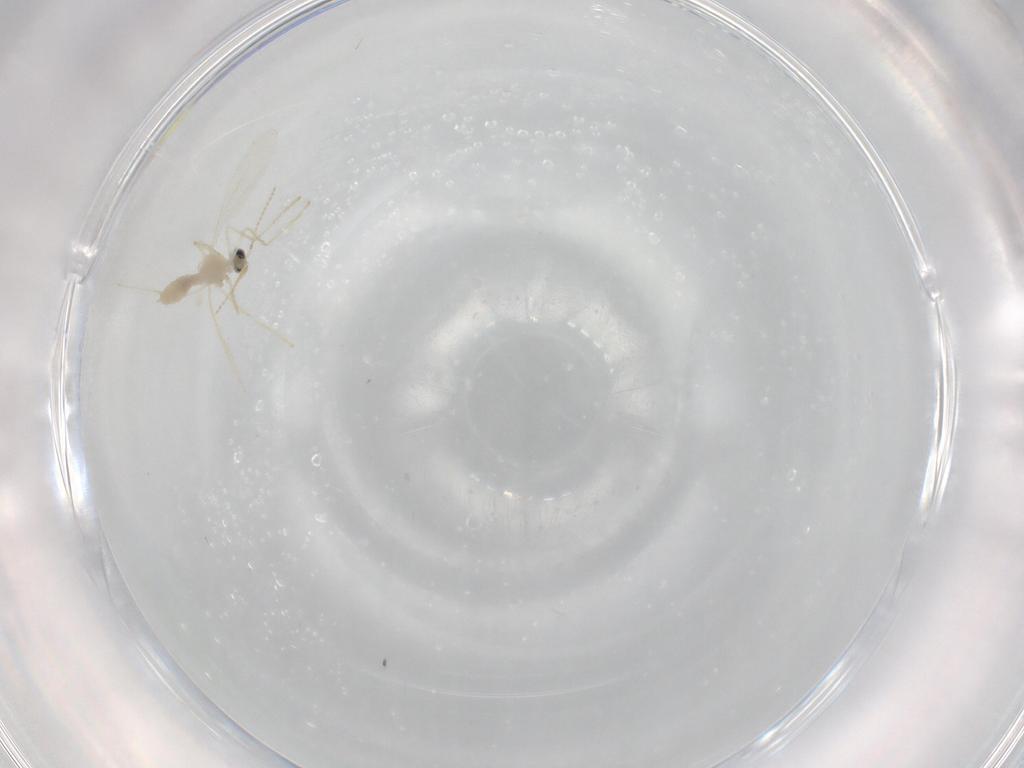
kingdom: Animalia
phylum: Arthropoda
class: Insecta
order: Diptera
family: Cecidomyiidae
